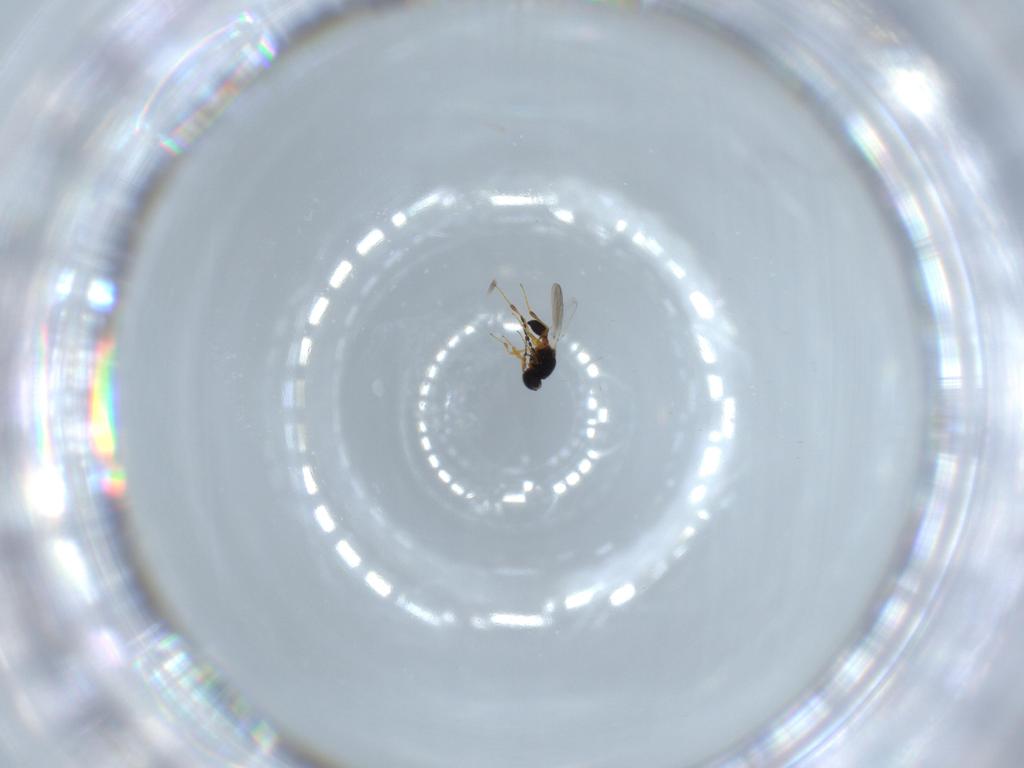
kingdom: Animalia
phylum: Arthropoda
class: Insecta
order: Hymenoptera
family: Platygastridae
